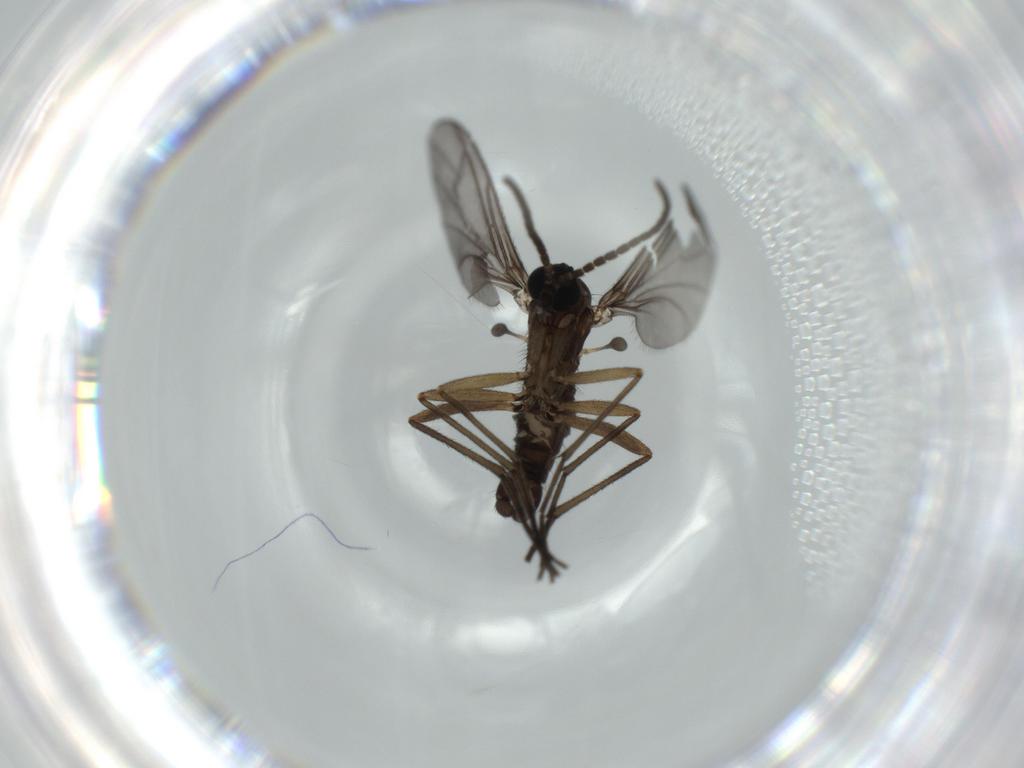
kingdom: Animalia
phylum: Arthropoda
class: Insecta
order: Diptera
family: Sciaridae
